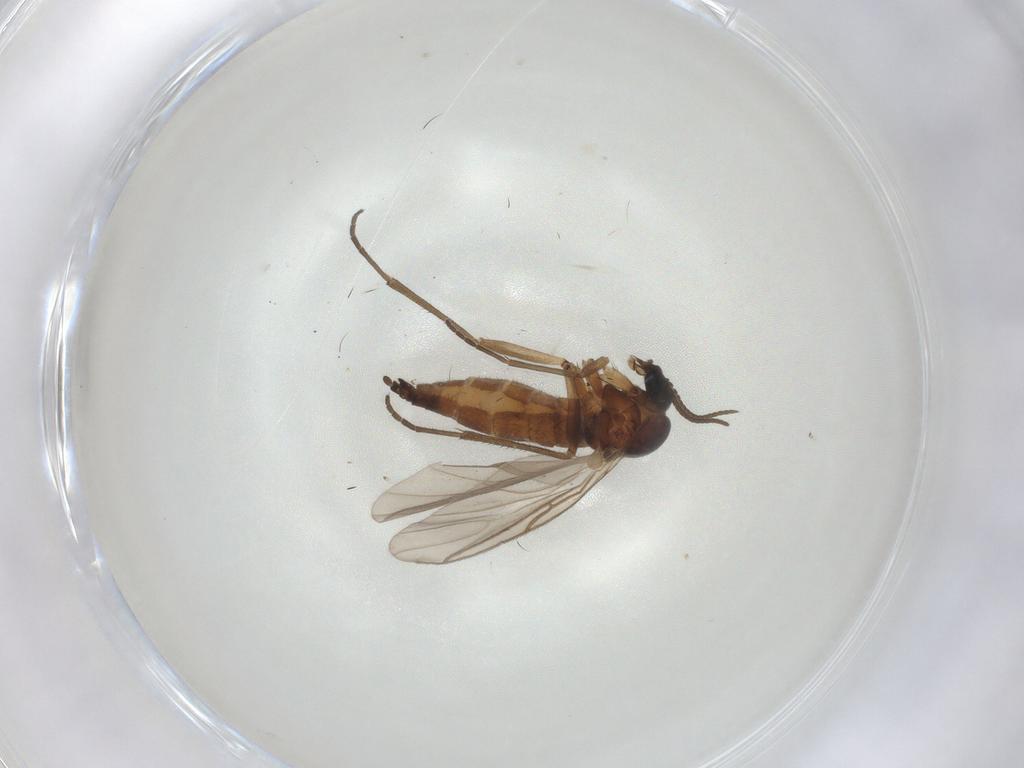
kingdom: Animalia
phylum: Arthropoda
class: Insecta
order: Diptera
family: Sciaridae
